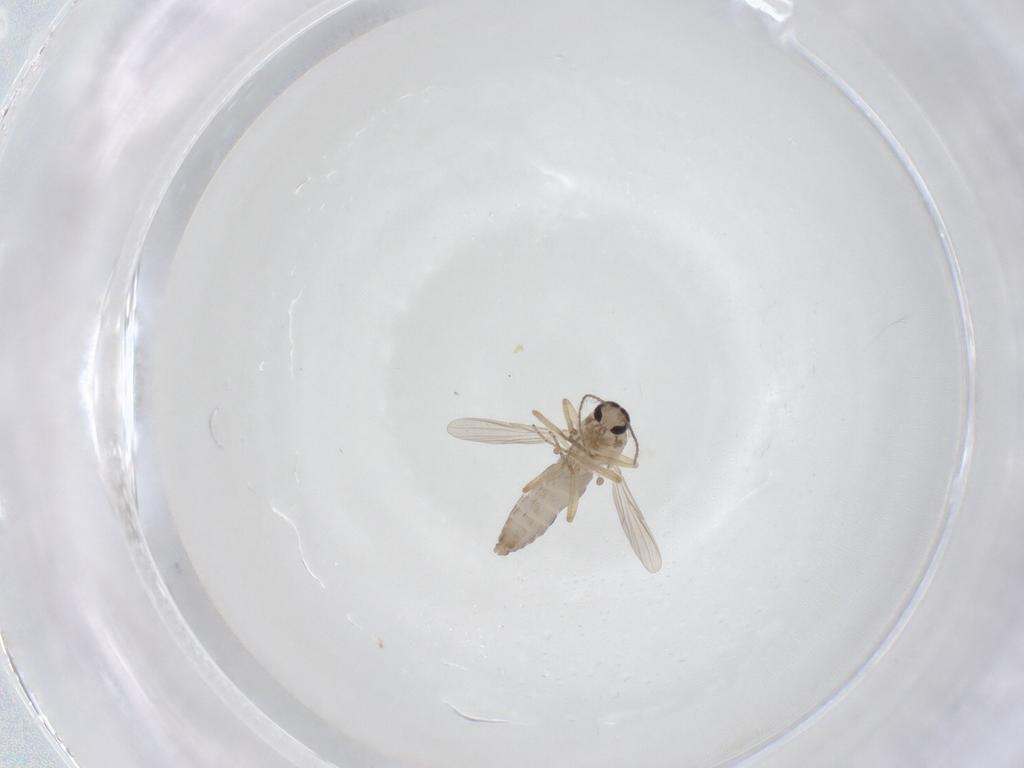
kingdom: Animalia
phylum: Arthropoda
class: Insecta
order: Diptera
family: Ceratopogonidae
